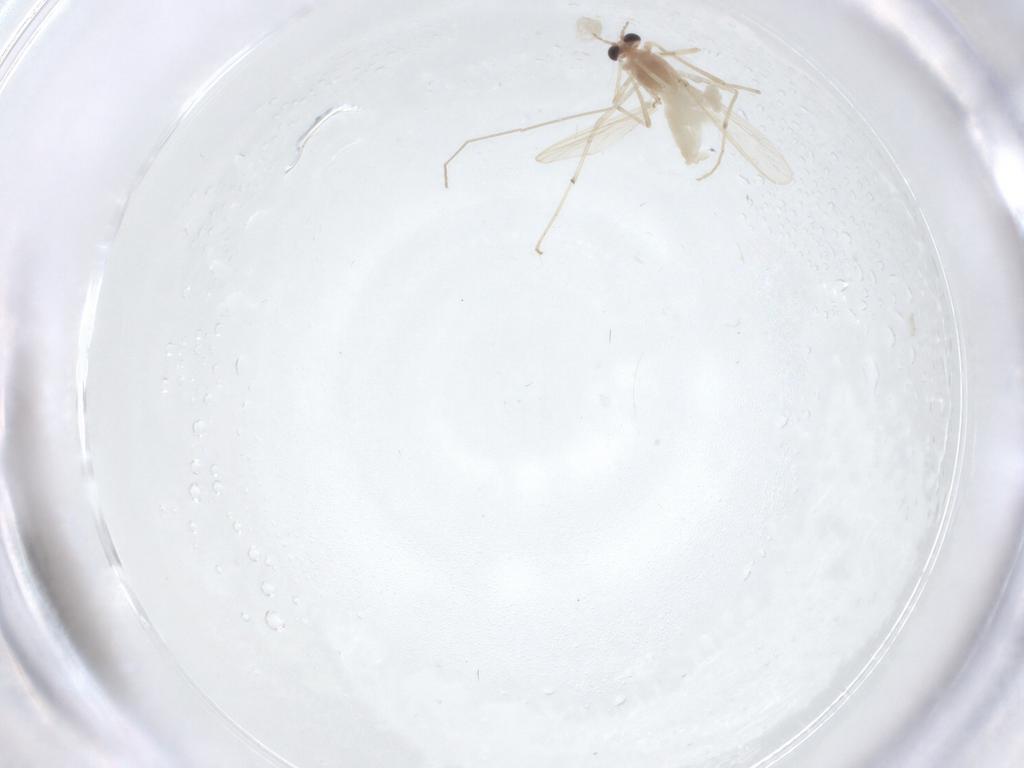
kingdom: Animalia
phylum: Arthropoda
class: Insecta
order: Diptera
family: Chironomidae
